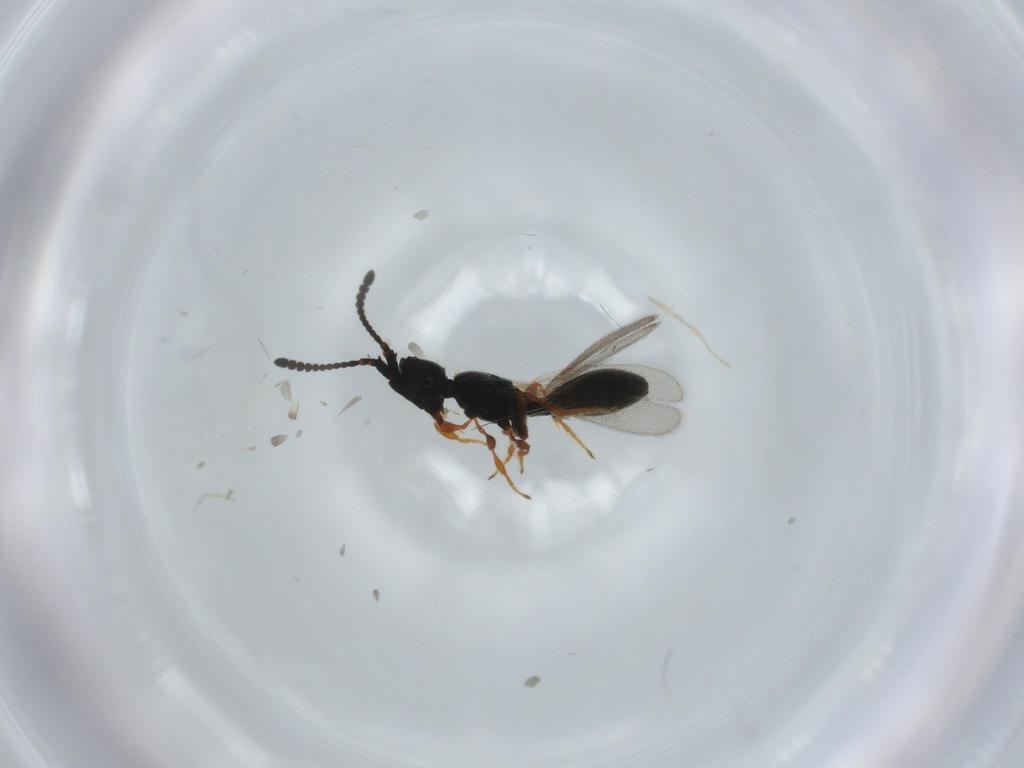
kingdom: Animalia
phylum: Arthropoda
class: Insecta
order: Hymenoptera
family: Diapriidae
